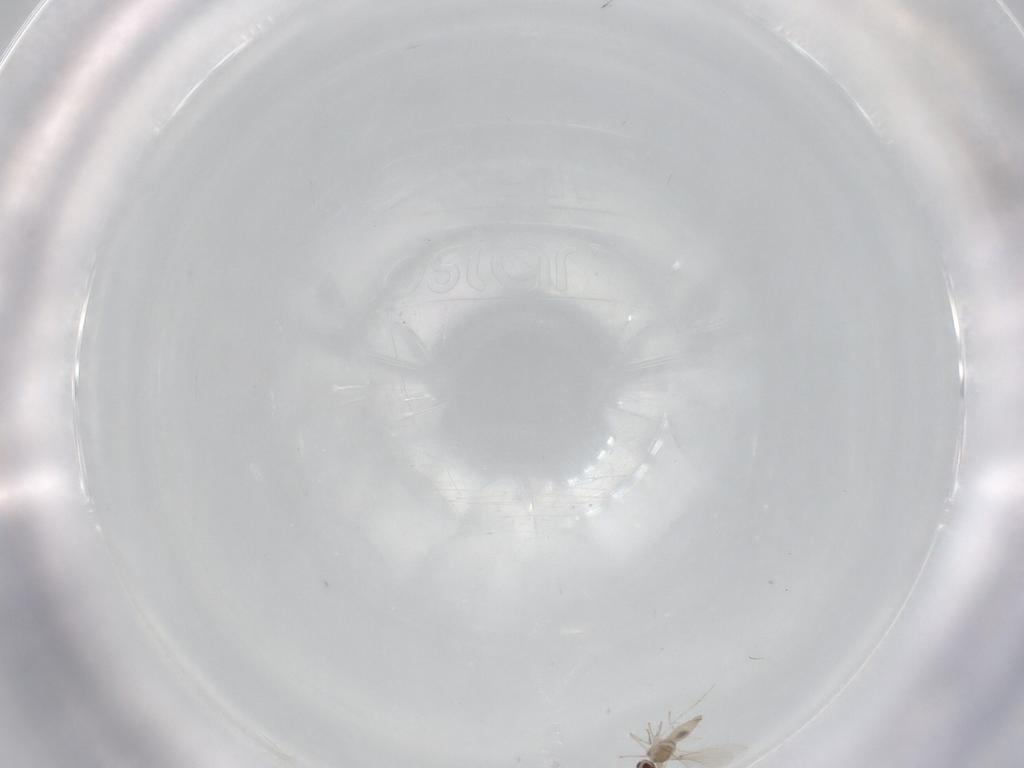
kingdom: Animalia
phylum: Arthropoda
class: Insecta
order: Diptera
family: Cecidomyiidae
